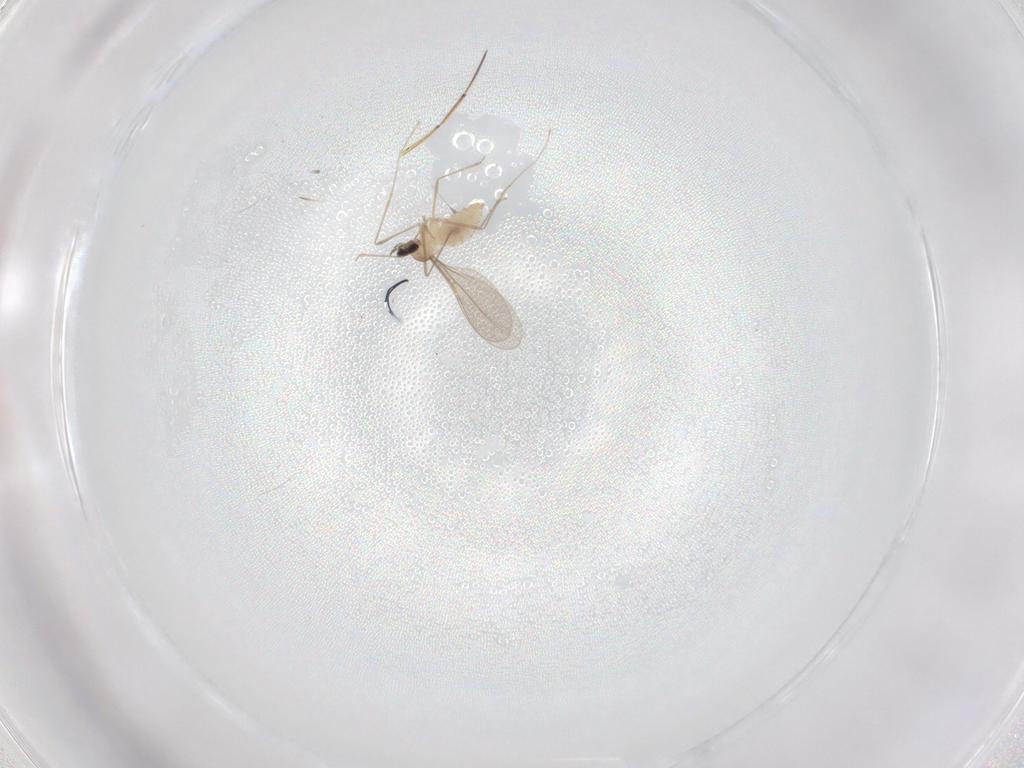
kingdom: Animalia
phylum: Arthropoda
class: Insecta
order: Diptera
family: Cecidomyiidae
